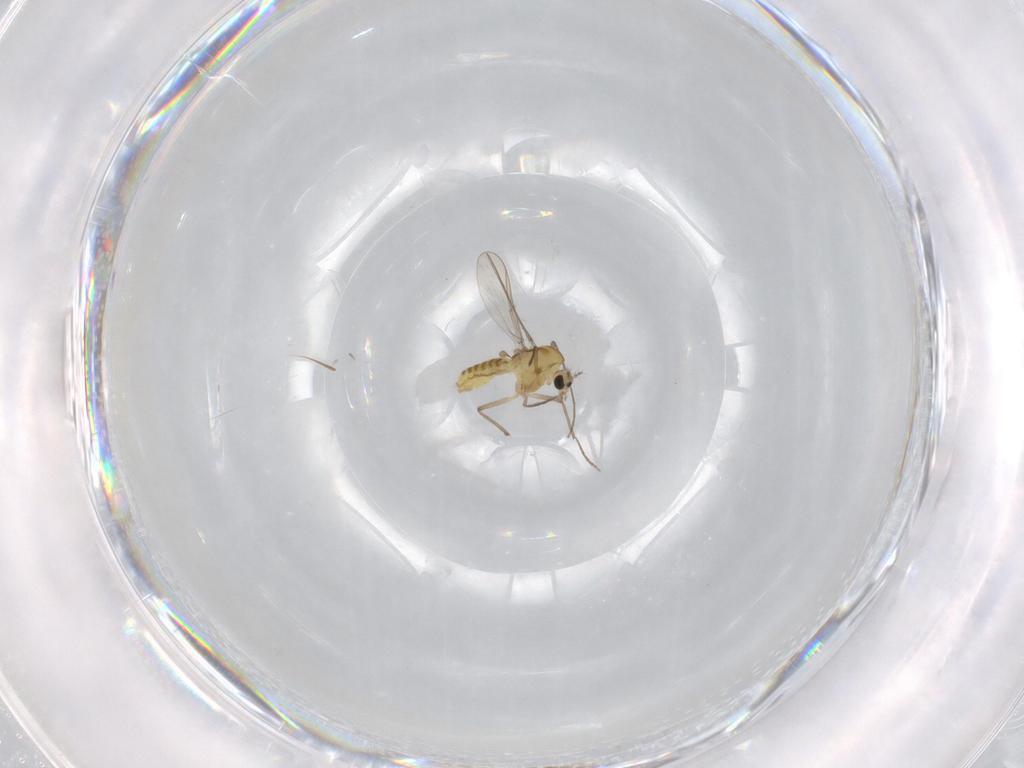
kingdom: Animalia
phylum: Arthropoda
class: Insecta
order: Diptera
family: Chironomidae
